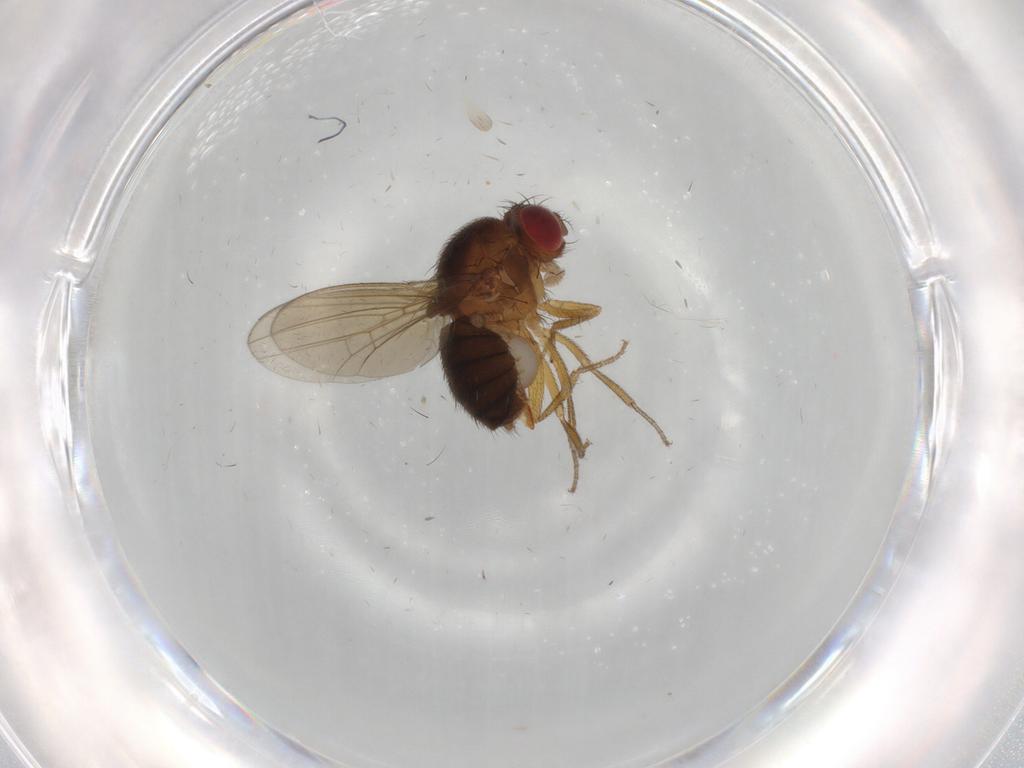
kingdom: Animalia
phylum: Arthropoda
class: Insecta
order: Diptera
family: Drosophilidae
